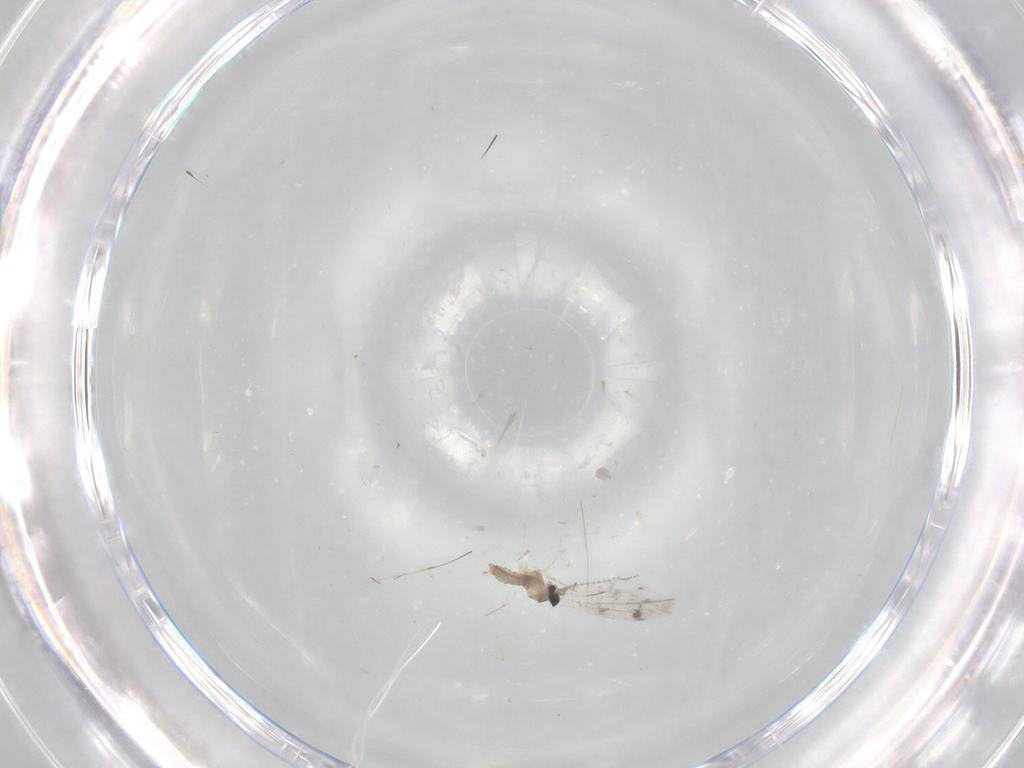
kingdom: Animalia
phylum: Arthropoda
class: Insecta
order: Diptera
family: Cecidomyiidae
